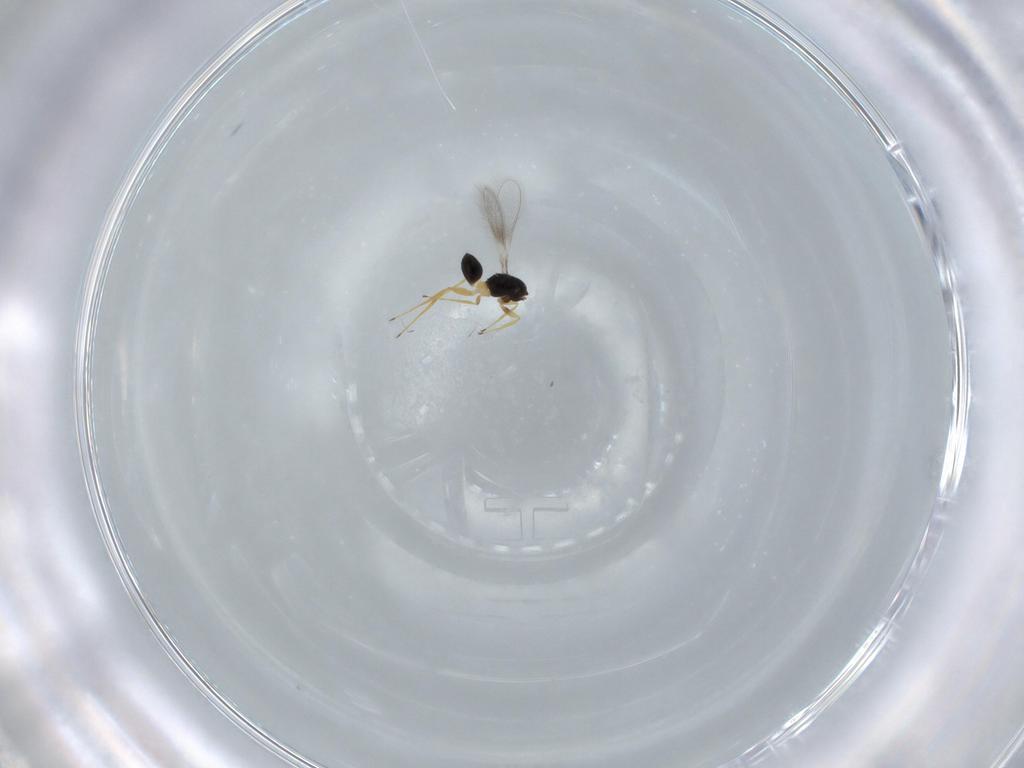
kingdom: Animalia
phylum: Arthropoda
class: Insecta
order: Hymenoptera
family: Mymaridae
